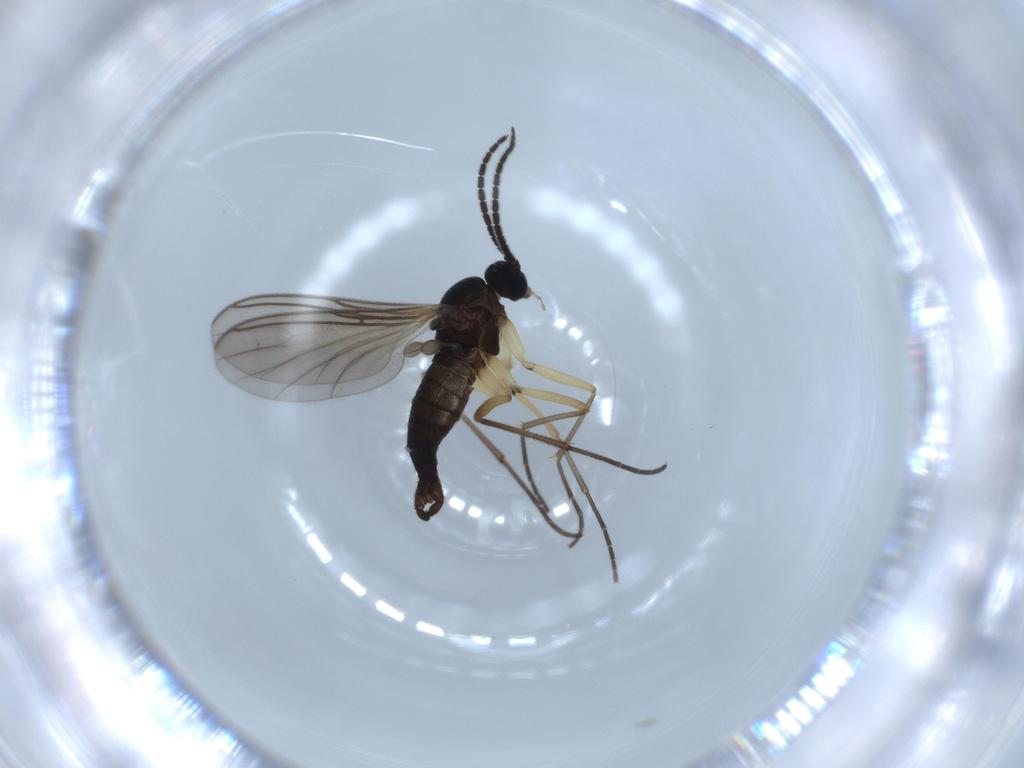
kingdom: Animalia
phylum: Arthropoda
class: Insecta
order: Diptera
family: Sciaridae
